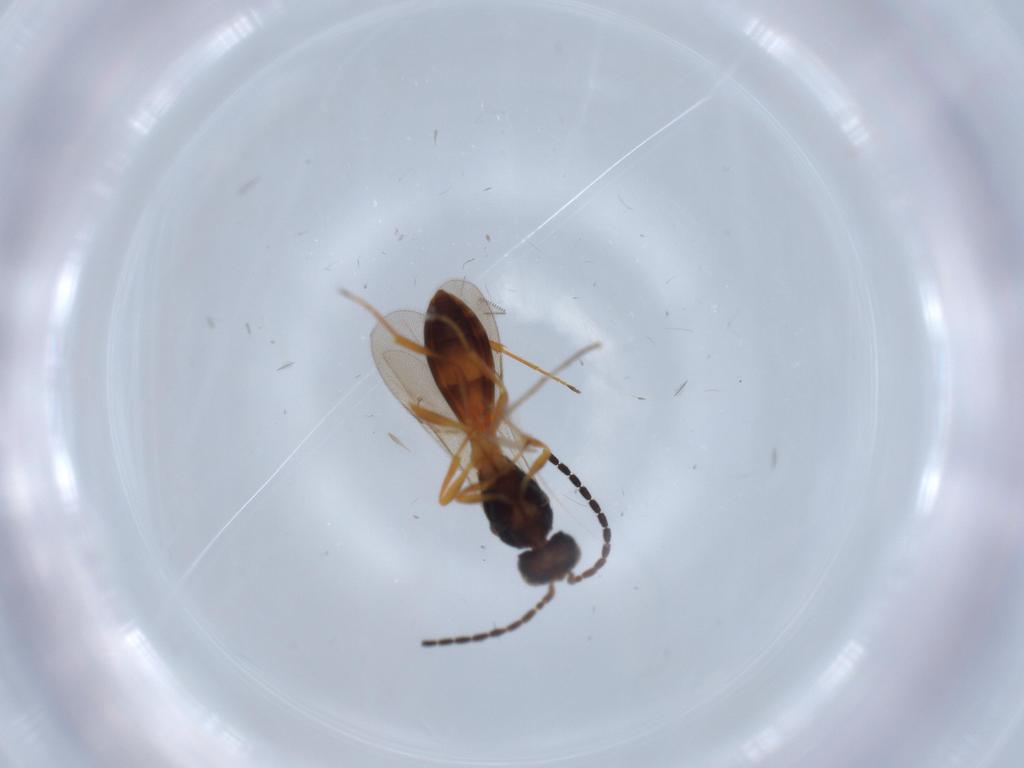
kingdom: Animalia
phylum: Arthropoda
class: Insecta
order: Hymenoptera
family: Scelionidae
